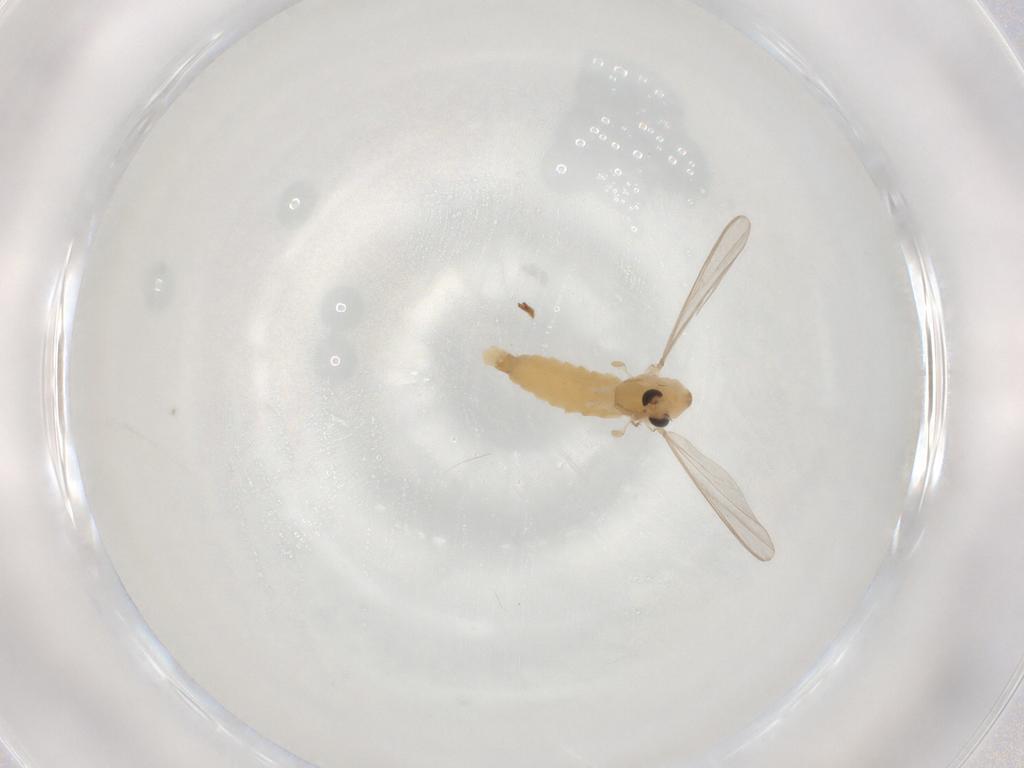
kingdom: Animalia
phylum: Arthropoda
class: Insecta
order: Diptera
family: Chironomidae
